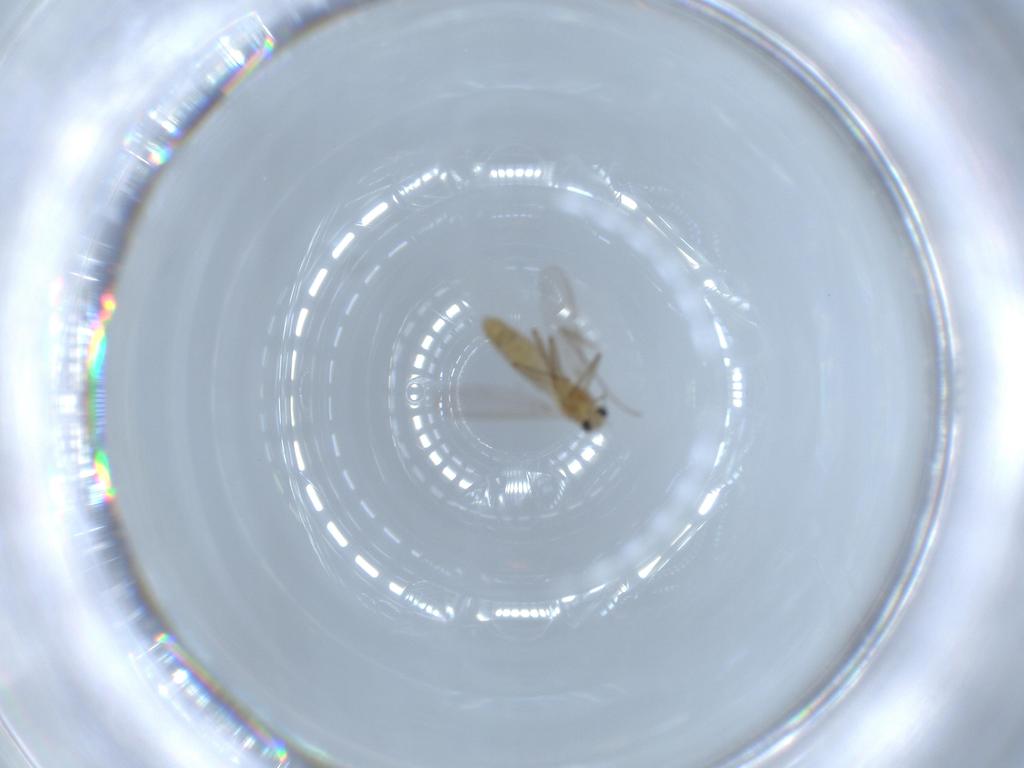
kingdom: Animalia
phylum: Arthropoda
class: Insecta
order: Diptera
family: Chironomidae
